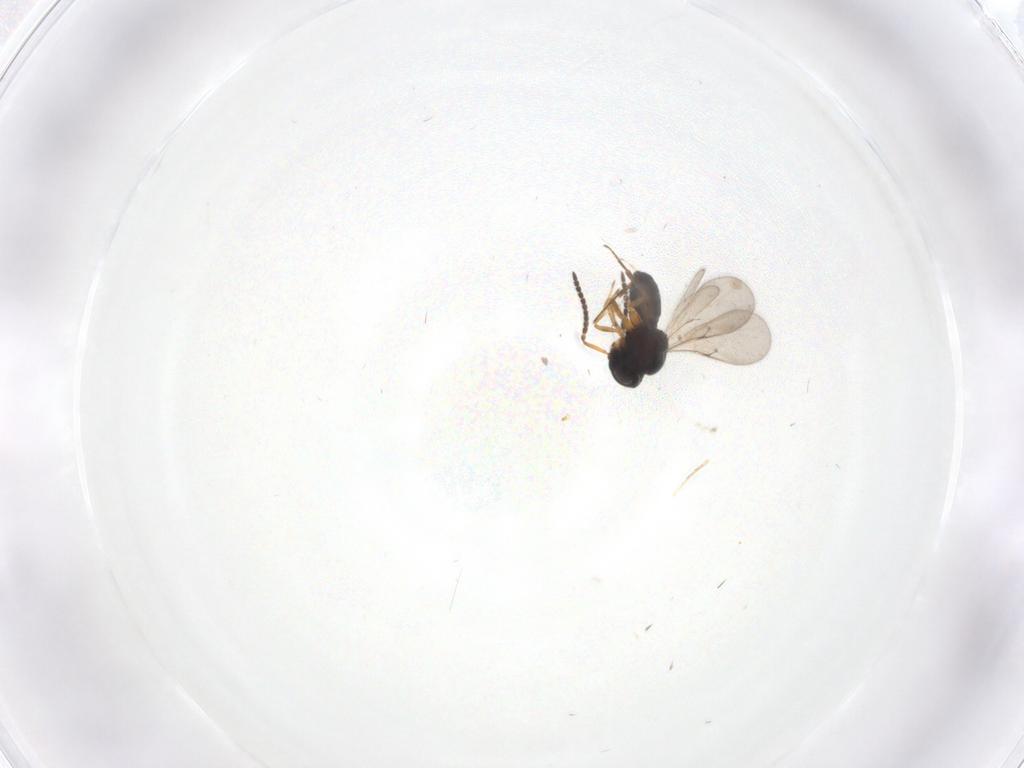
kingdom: Animalia
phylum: Arthropoda
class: Insecta
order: Hymenoptera
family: Scelionidae
